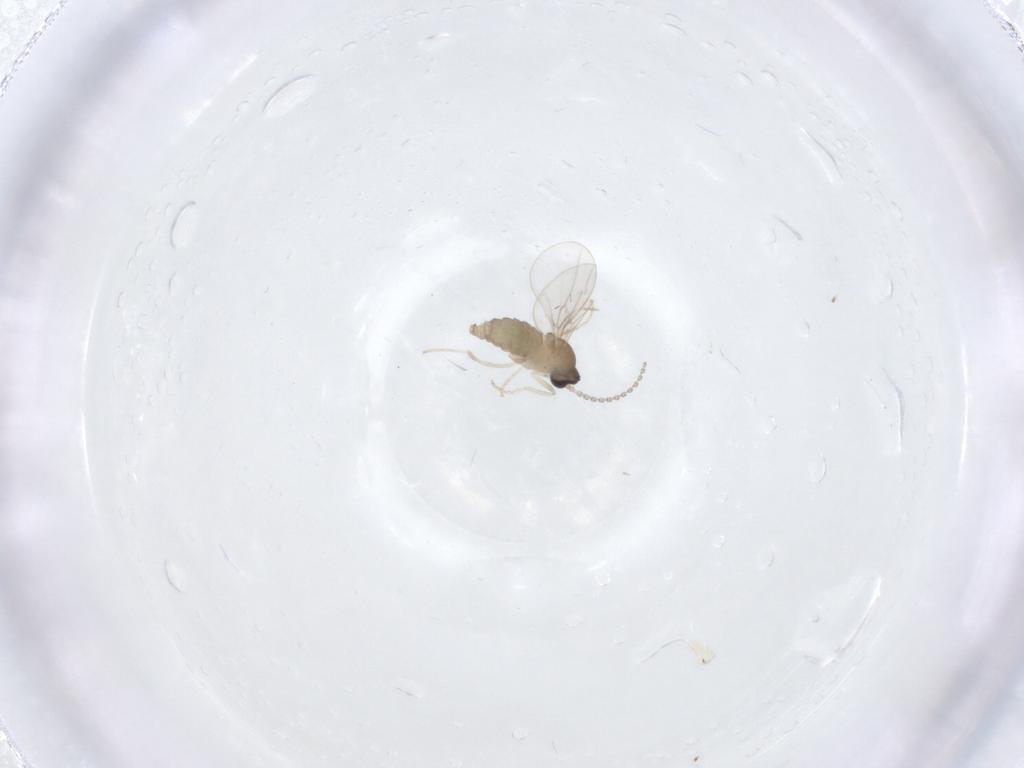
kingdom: Animalia
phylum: Arthropoda
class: Insecta
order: Diptera
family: Cecidomyiidae
